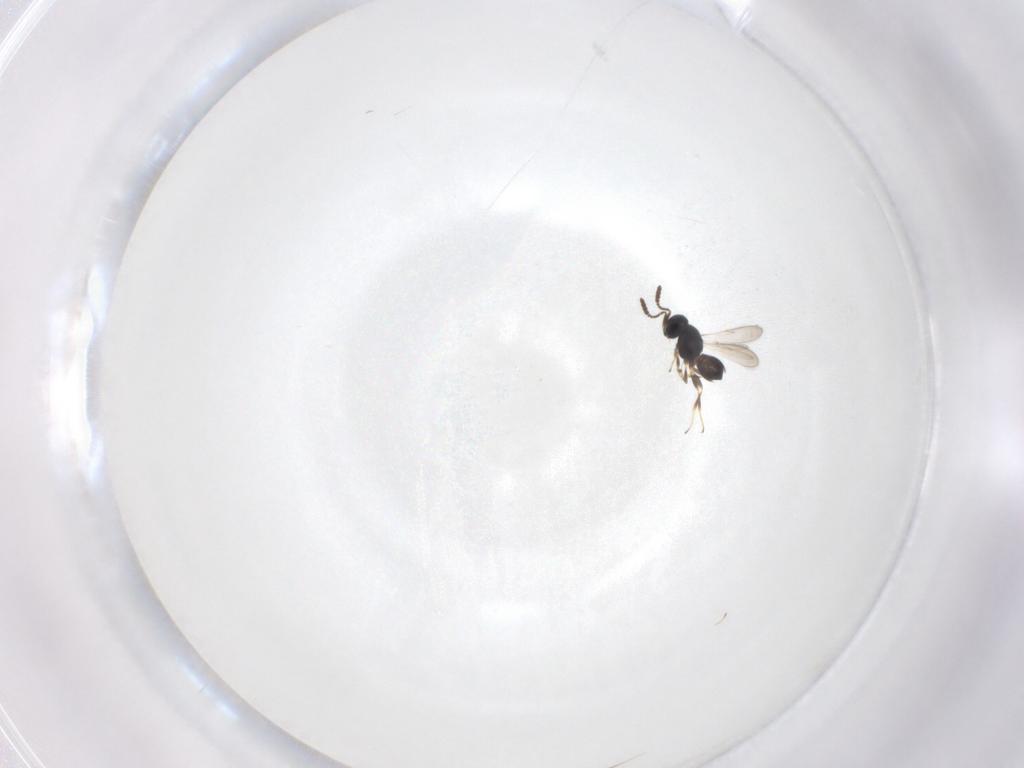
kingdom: Animalia
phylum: Arthropoda
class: Insecta
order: Hymenoptera
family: Scelionidae
